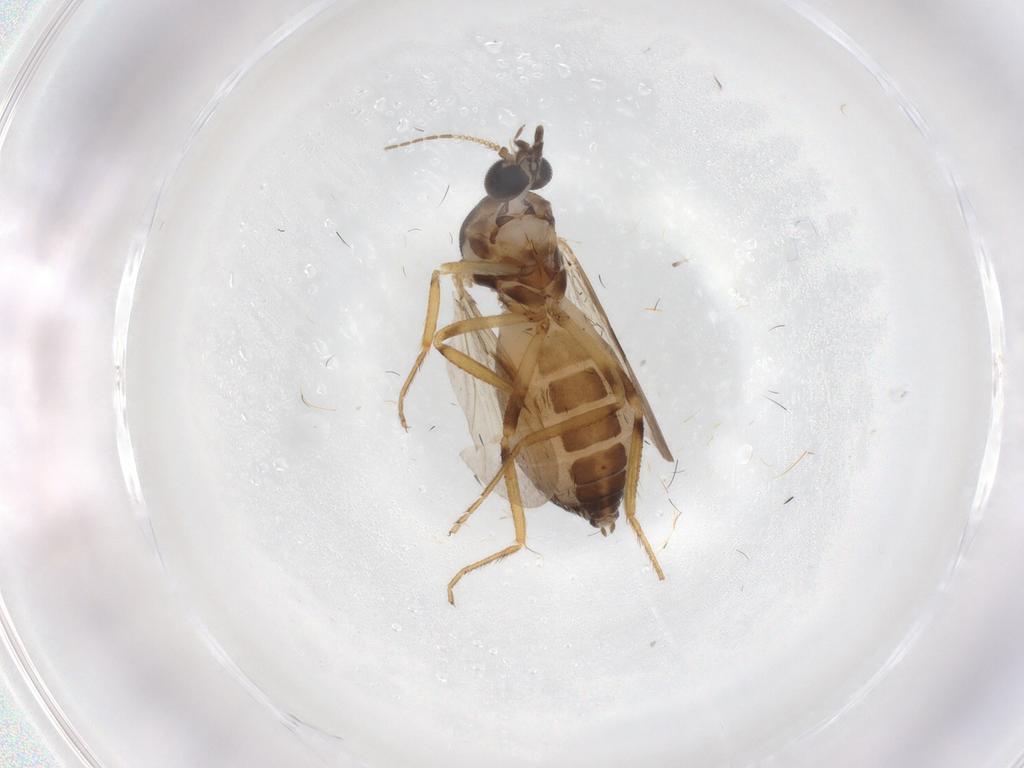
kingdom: Animalia
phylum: Arthropoda
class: Insecta
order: Diptera
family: Ceratopogonidae
